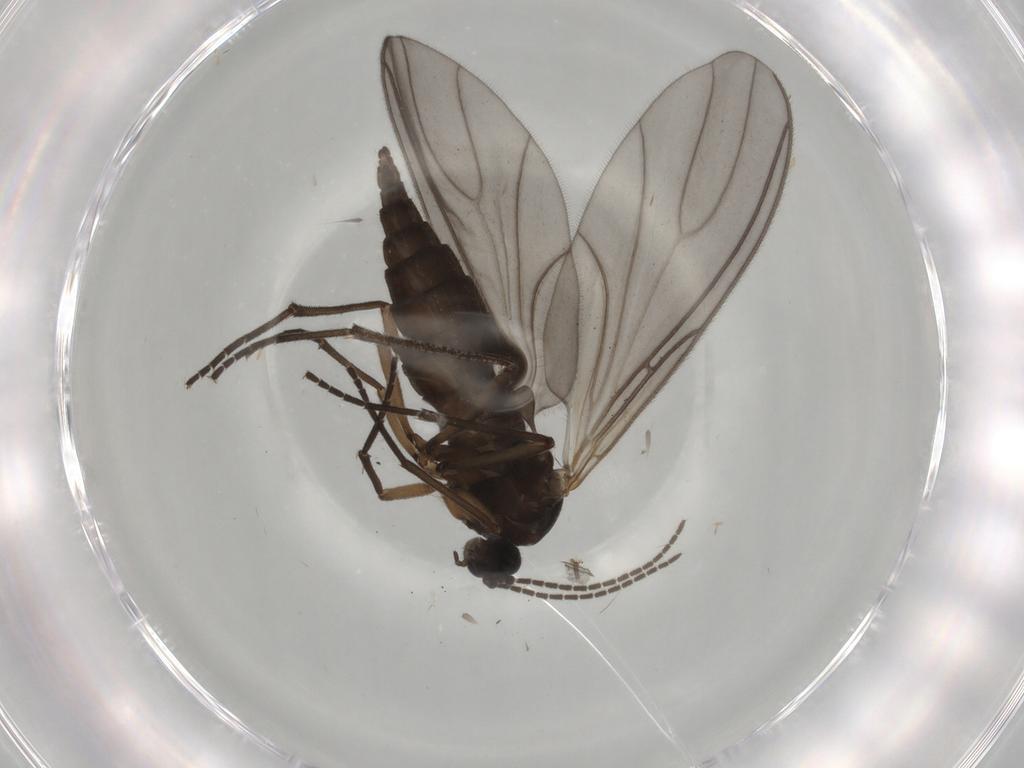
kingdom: Animalia
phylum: Arthropoda
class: Insecta
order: Diptera
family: Sciaridae
